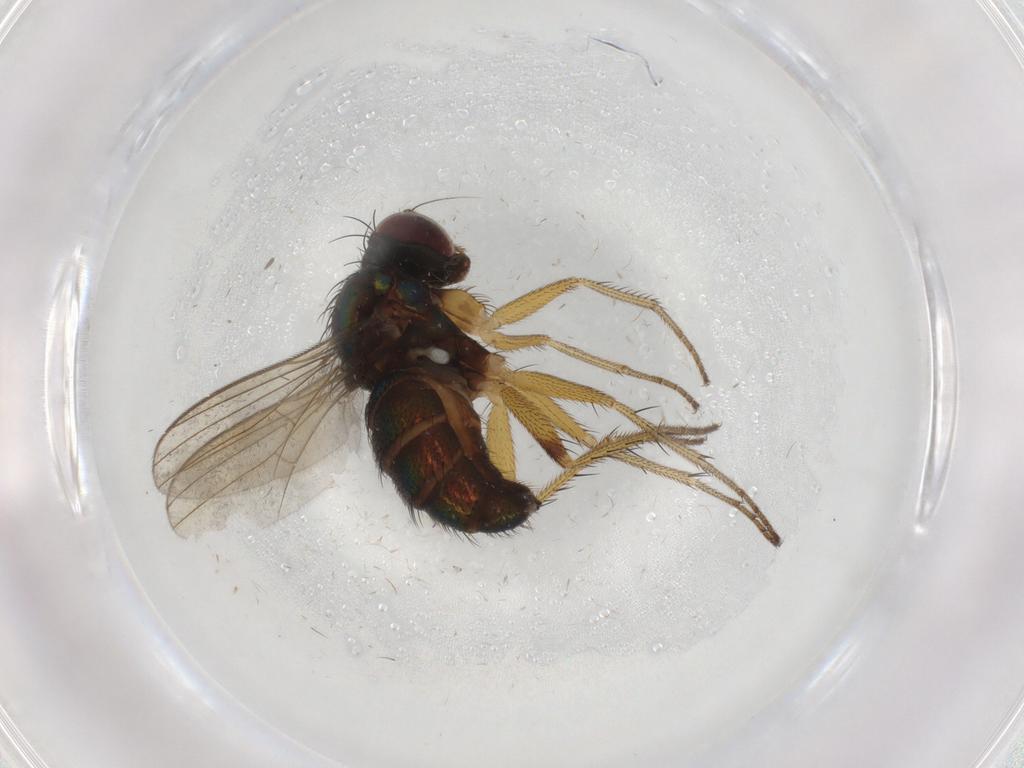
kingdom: Animalia
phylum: Arthropoda
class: Insecta
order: Diptera
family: Dolichopodidae
